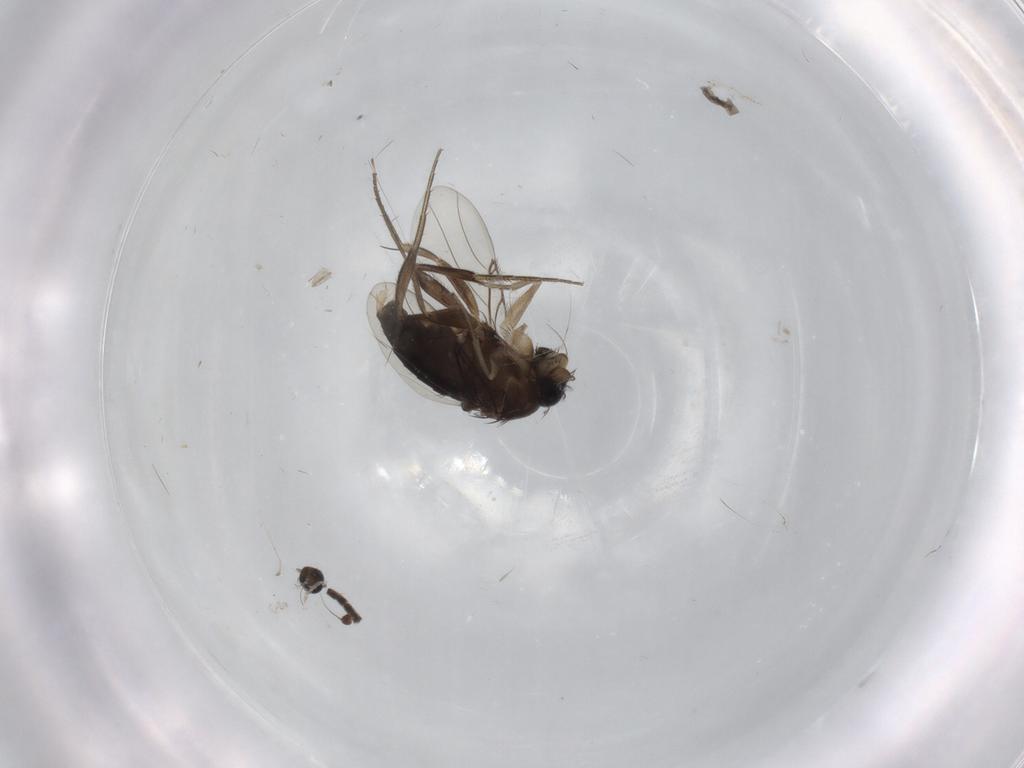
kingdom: Animalia
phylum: Arthropoda
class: Insecta
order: Diptera
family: Phoridae
